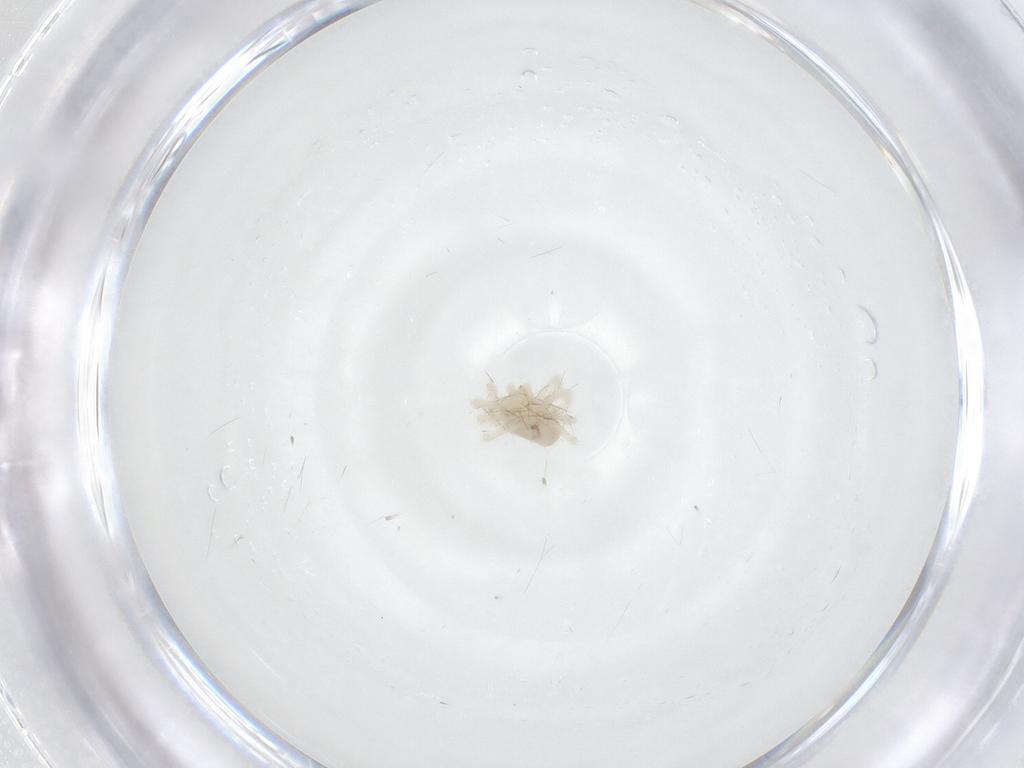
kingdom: Animalia
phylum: Arthropoda
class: Arachnida
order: Trombidiformes
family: Anystidae
